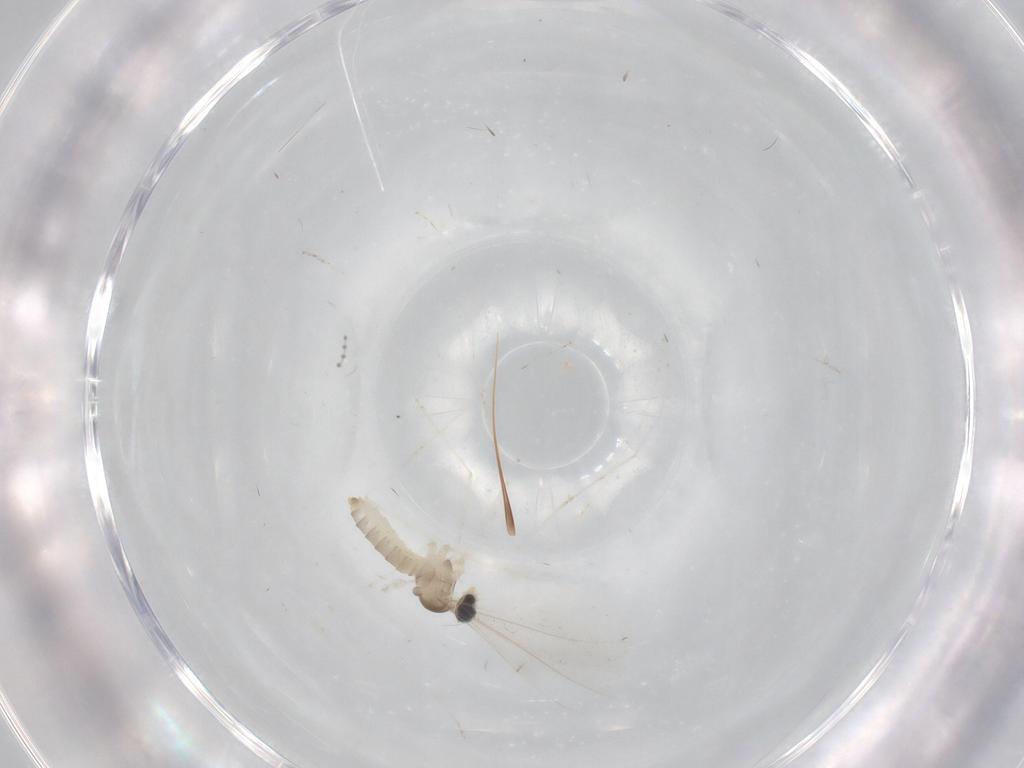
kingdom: Animalia
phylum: Arthropoda
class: Insecta
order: Diptera
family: Cecidomyiidae
